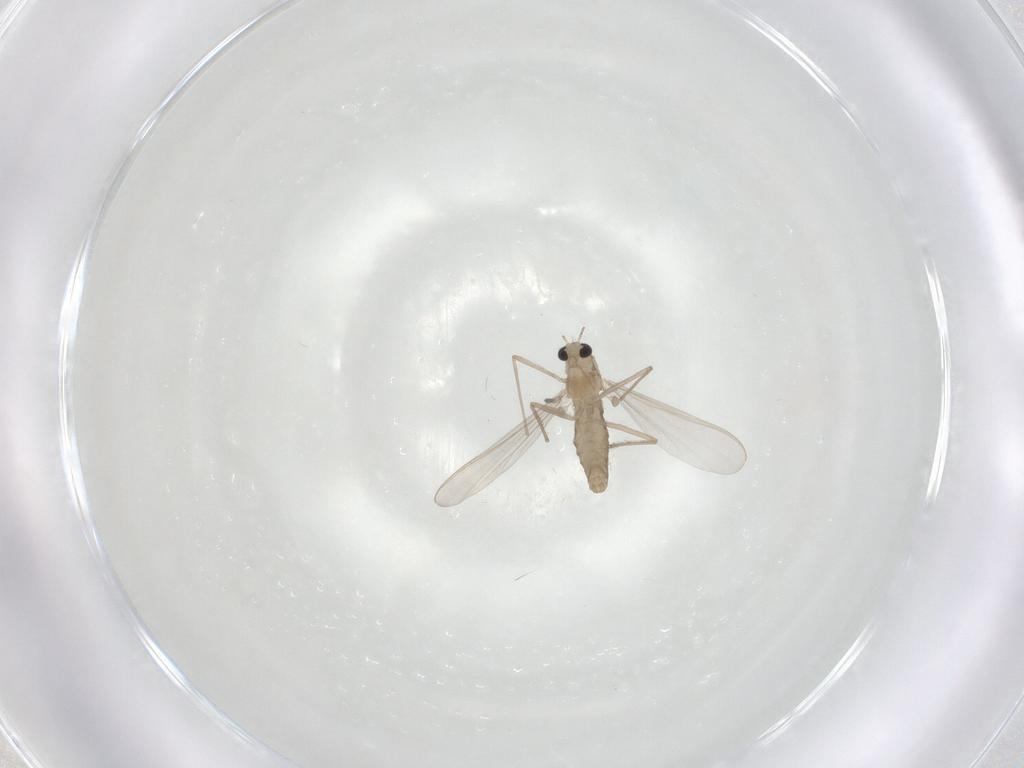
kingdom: Animalia
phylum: Arthropoda
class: Insecta
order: Diptera
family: Chironomidae
